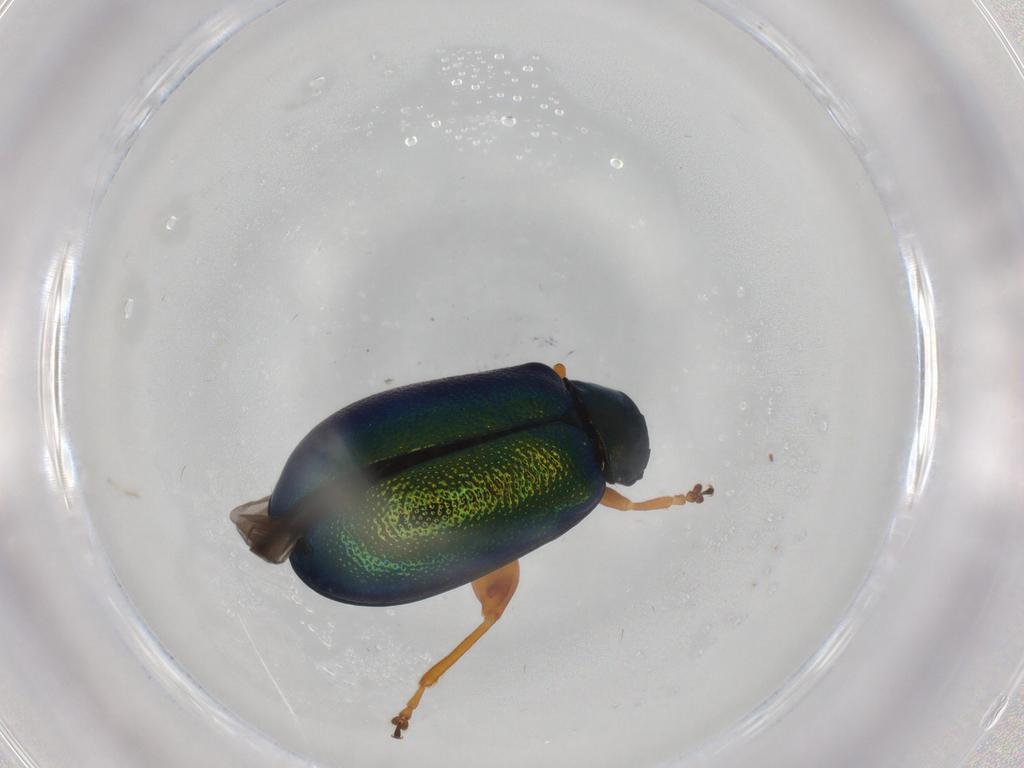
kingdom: Animalia
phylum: Arthropoda
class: Insecta
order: Coleoptera
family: Chrysomelidae
